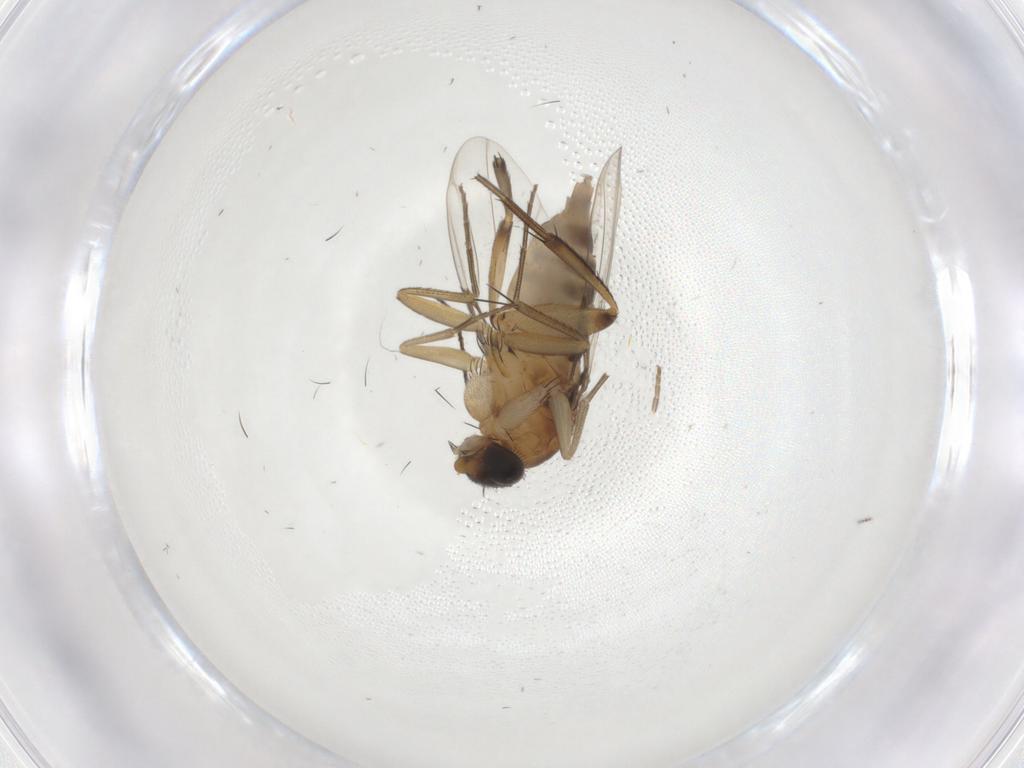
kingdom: Animalia
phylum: Arthropoda
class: Insecta
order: Diptera
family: Phoridae
